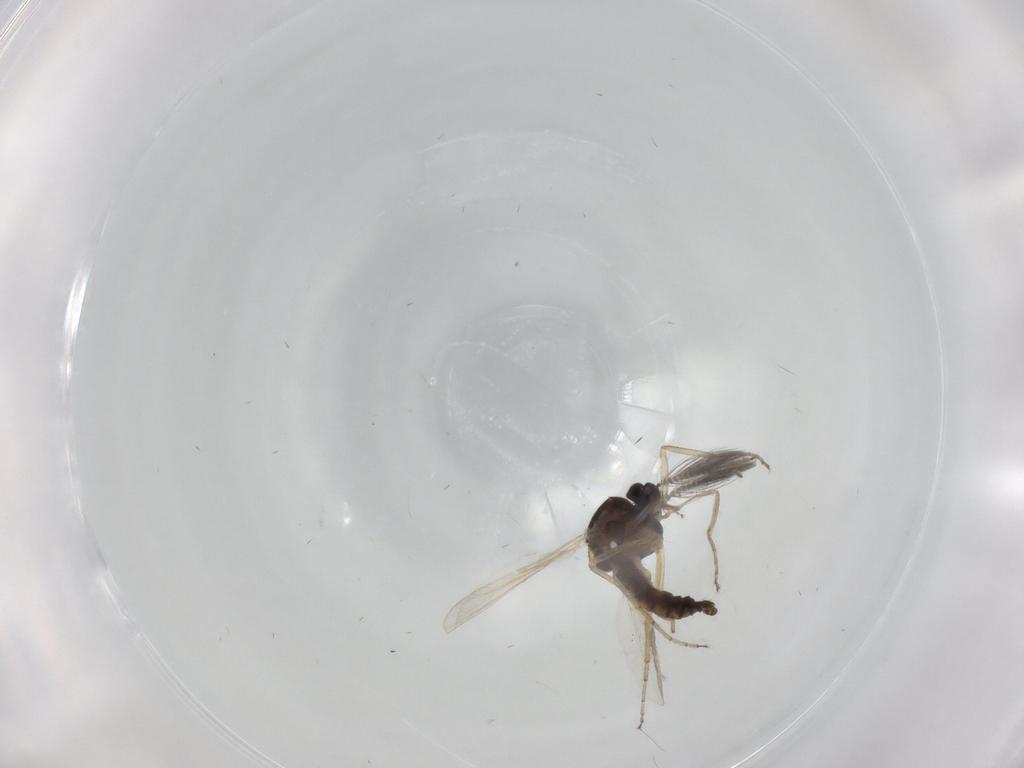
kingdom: Animalia
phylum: Arthropoda
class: Insecta
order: Diptera
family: Ceratopogonidae
